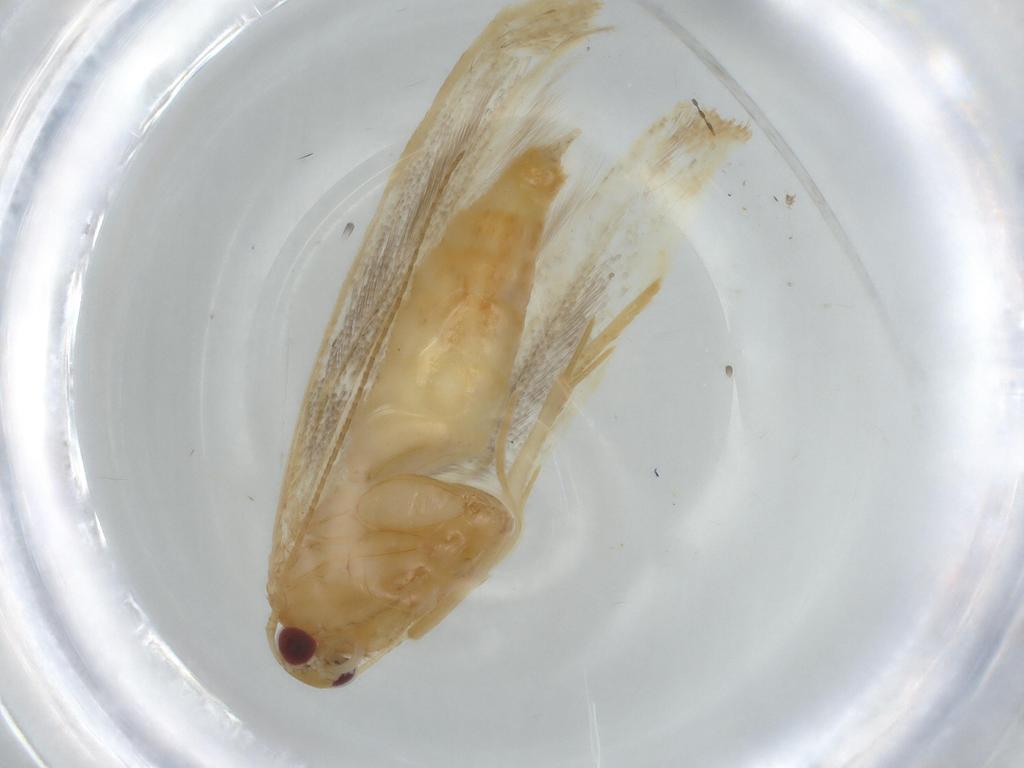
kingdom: Animalia
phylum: Arthropoda
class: Insecta
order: Lepidoptera
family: Cosmopterigidae
